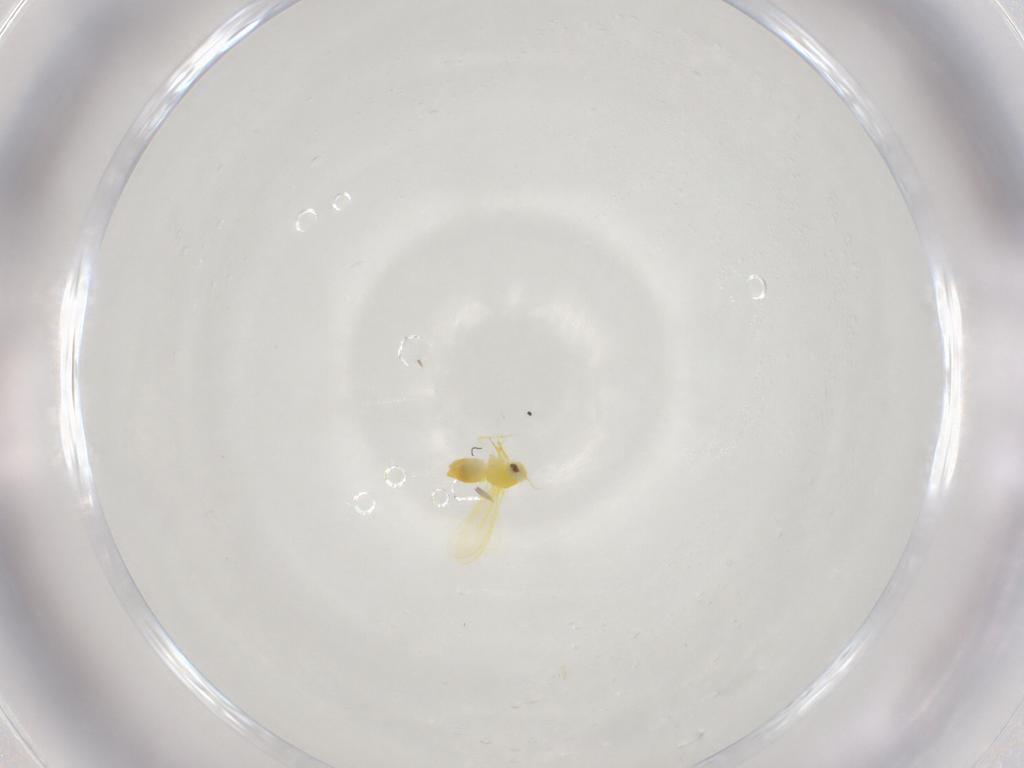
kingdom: Animalia
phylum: Arthropoda
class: Insecta
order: Hemiptera
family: Aleyrodidae
